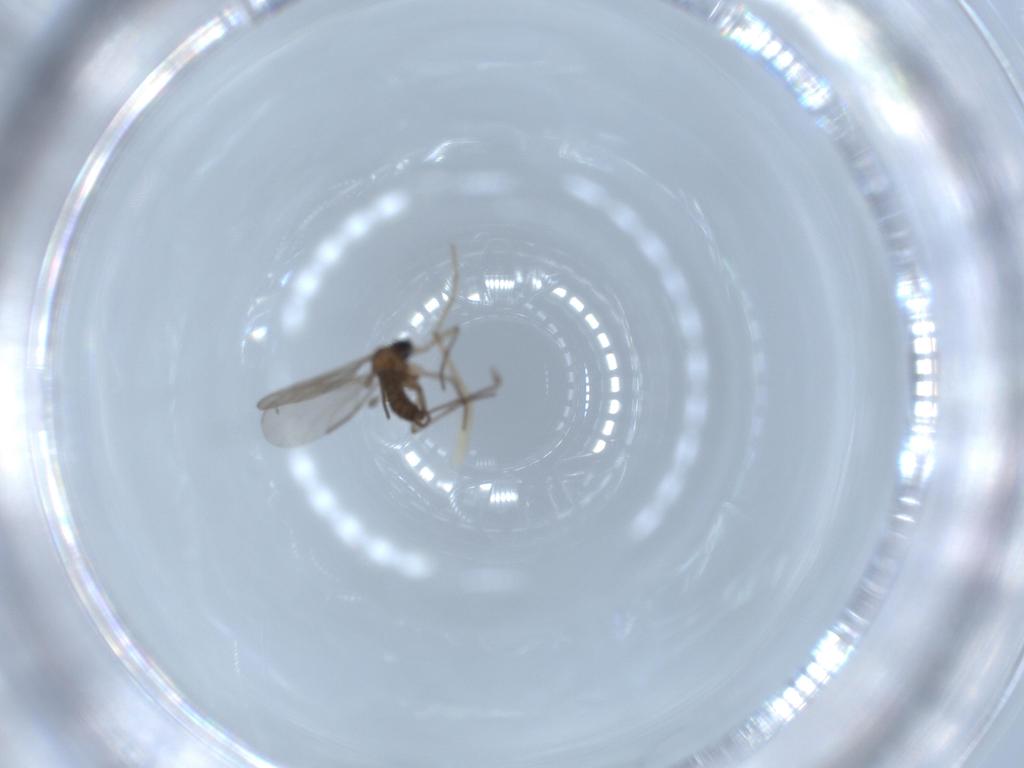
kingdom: Animalia
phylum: Arthropoda
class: Insecta
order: Diptera
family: Sciaridae
